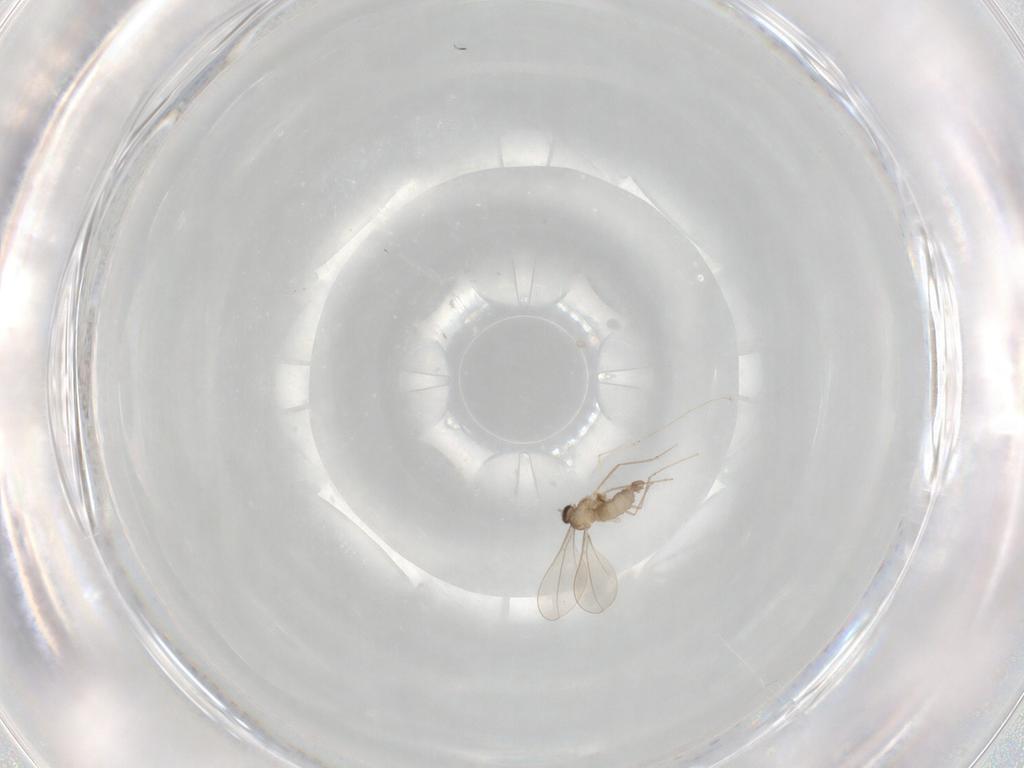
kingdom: Animalia
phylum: Arthropoda
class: Insecta
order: Diptera
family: Cecidomyiidae
